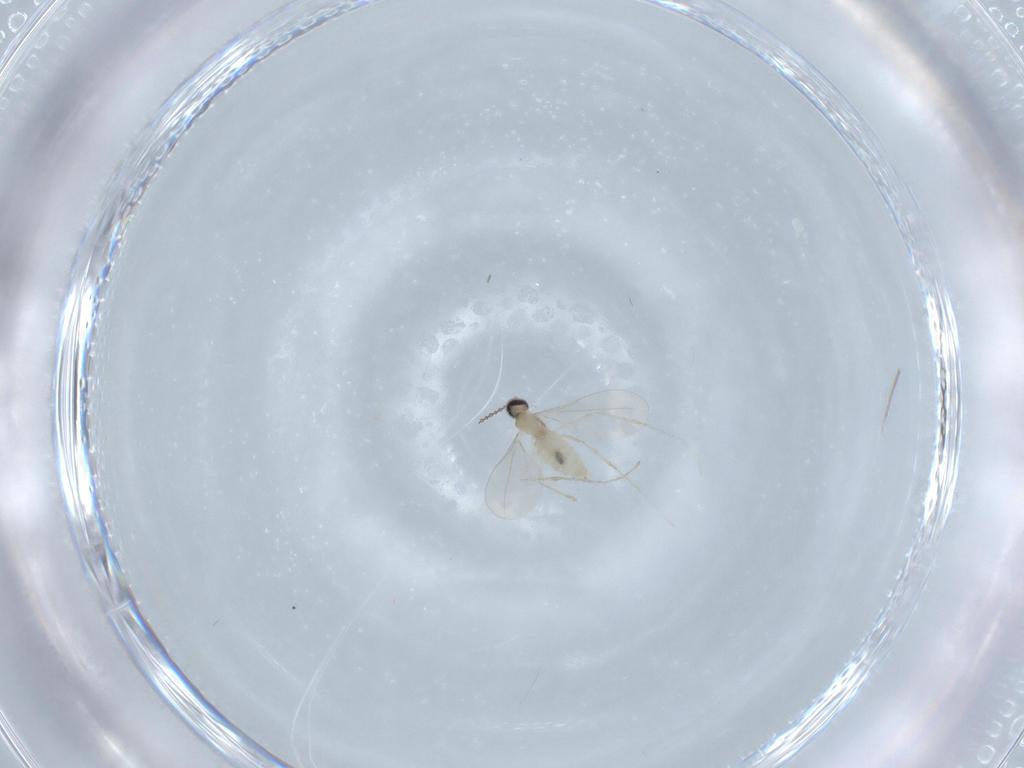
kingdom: Animalia
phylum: Arthropoda
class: Insecta
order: Diptera
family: Cecidomyiidae
